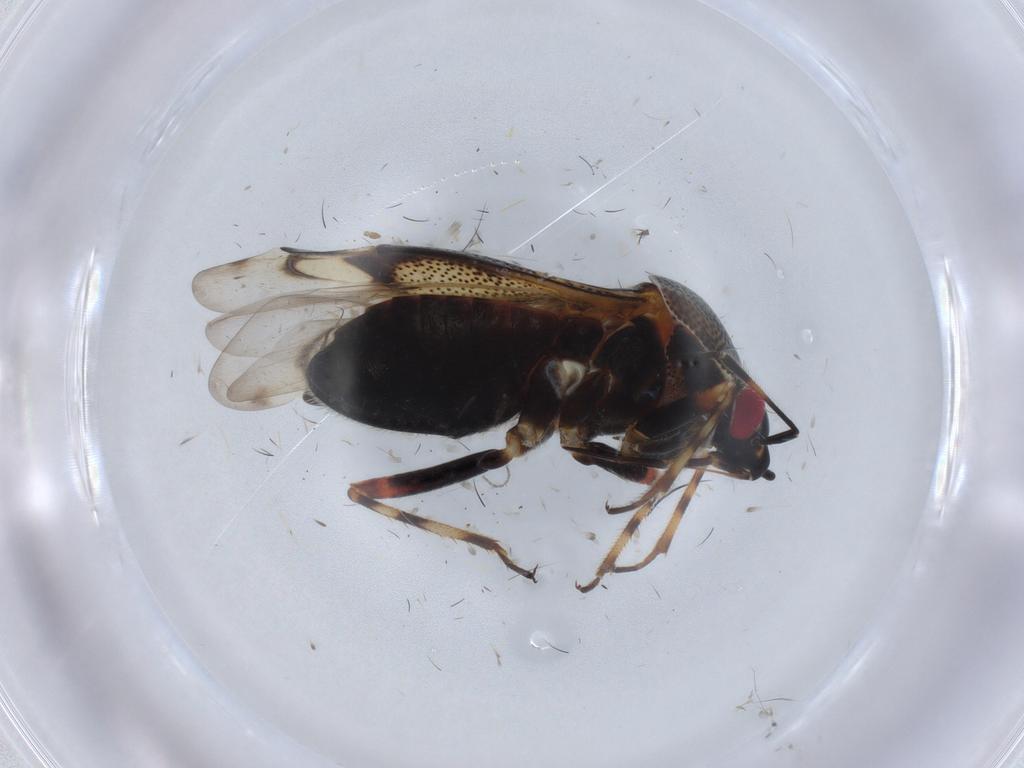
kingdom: Animalia
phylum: Arthropoda
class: Insecta
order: Hemiptera
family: Miridae
